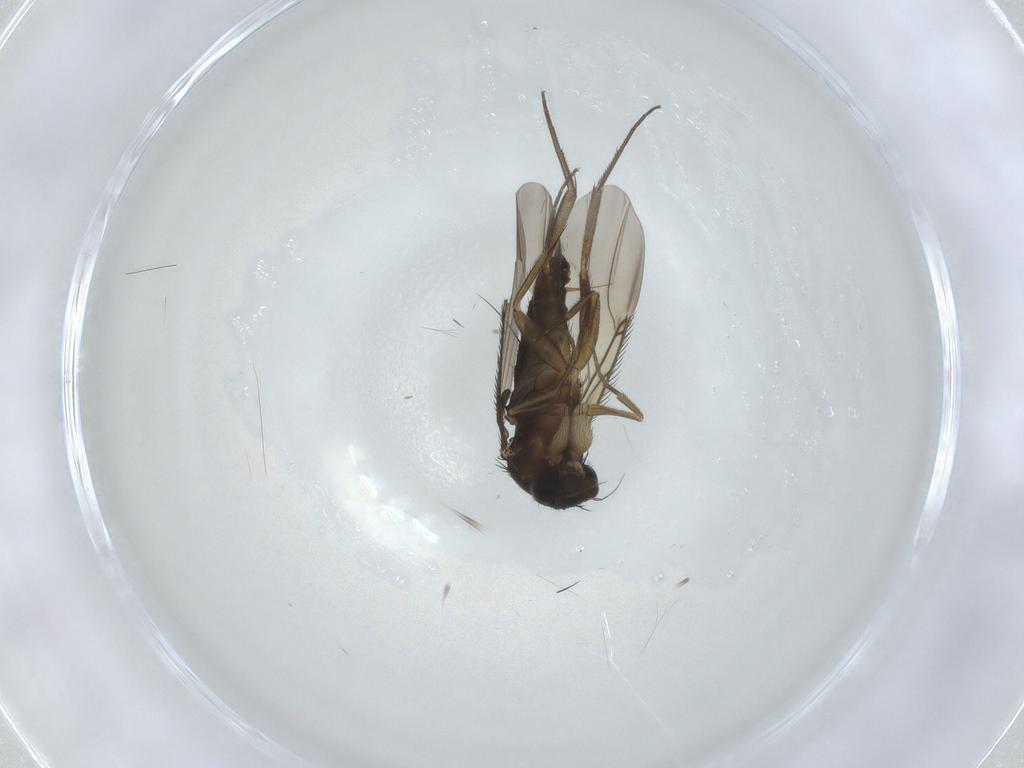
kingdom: Animalia
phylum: Arthropoda
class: Insecta
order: Diptera
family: Phoridae
